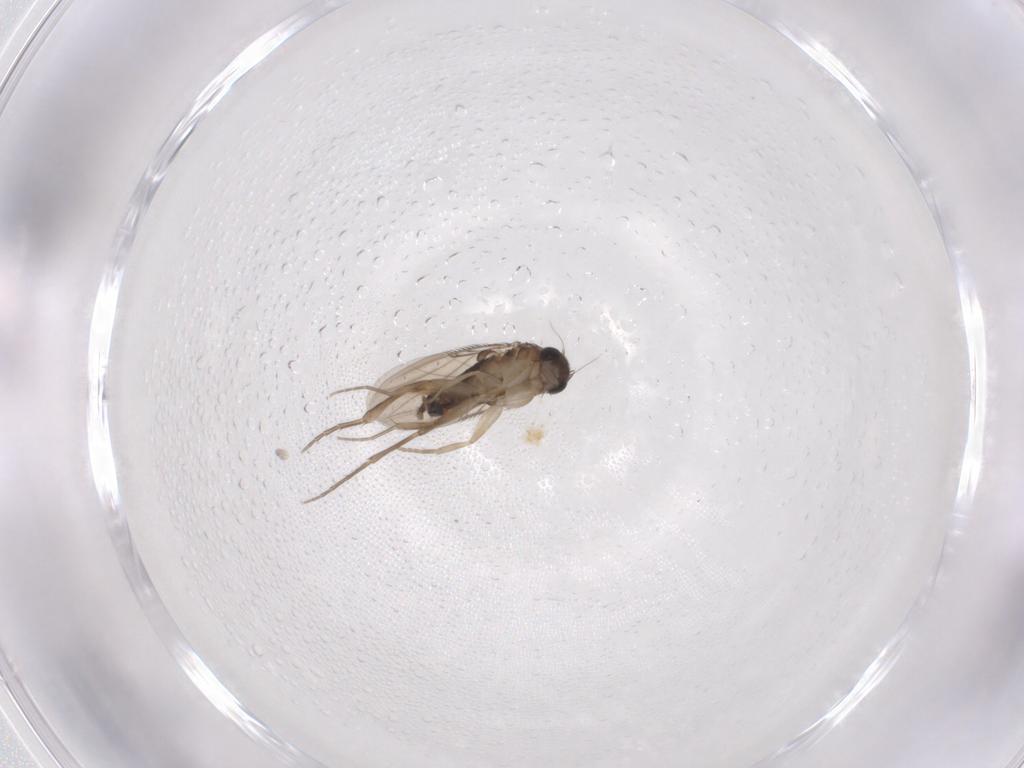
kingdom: Animalia
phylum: Arthropoda
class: Insecta
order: Diptera
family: Phoridae
